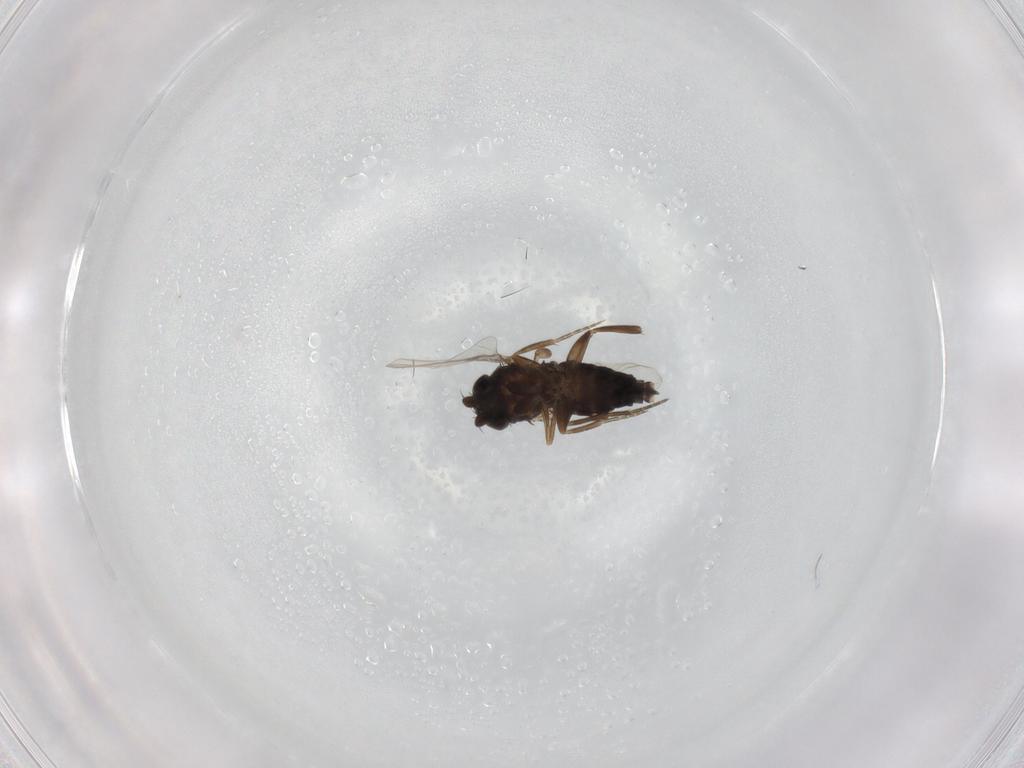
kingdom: Animalia
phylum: Arthropoda
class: Insecta
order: Diptera
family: Phoridae
